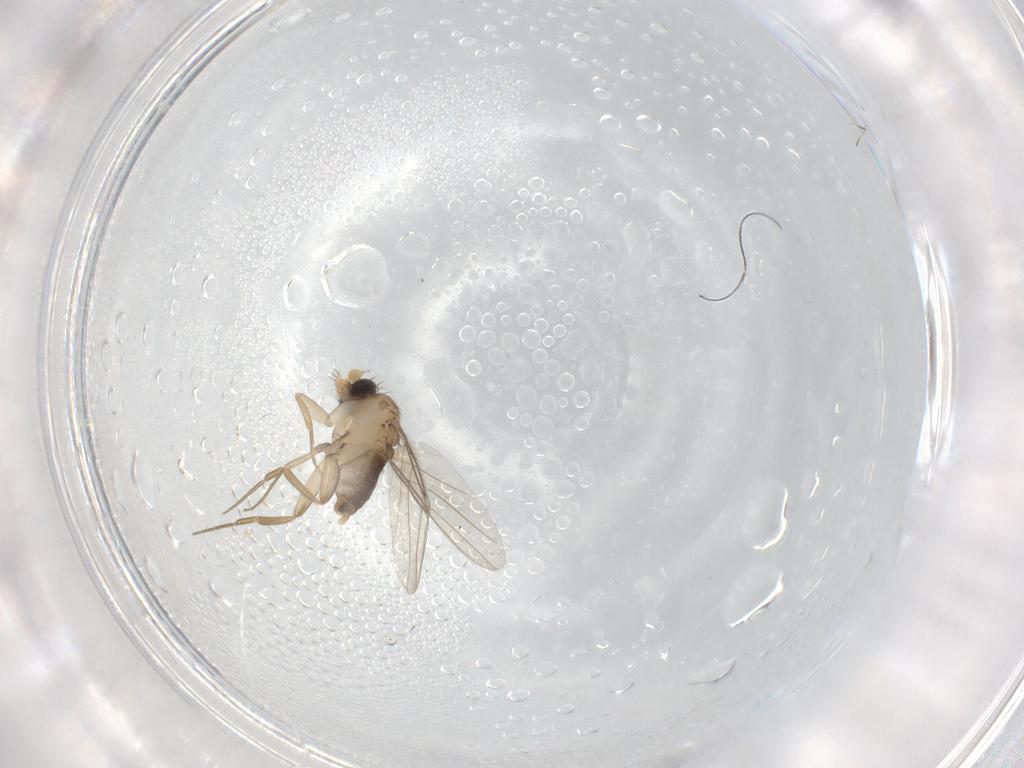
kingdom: Animalia
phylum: Arthropoda
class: Insecta
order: Diptera
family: Phoridae
